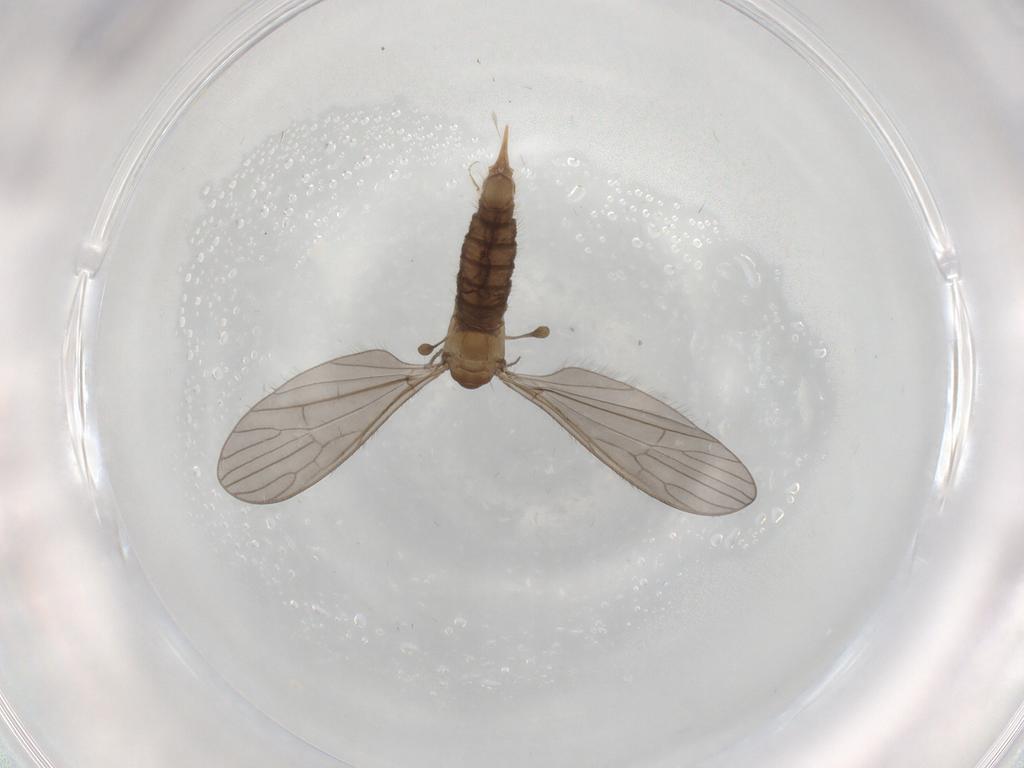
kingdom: Animalia
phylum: Arthropoda
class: Insecta
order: Diptera
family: Limoniidae
